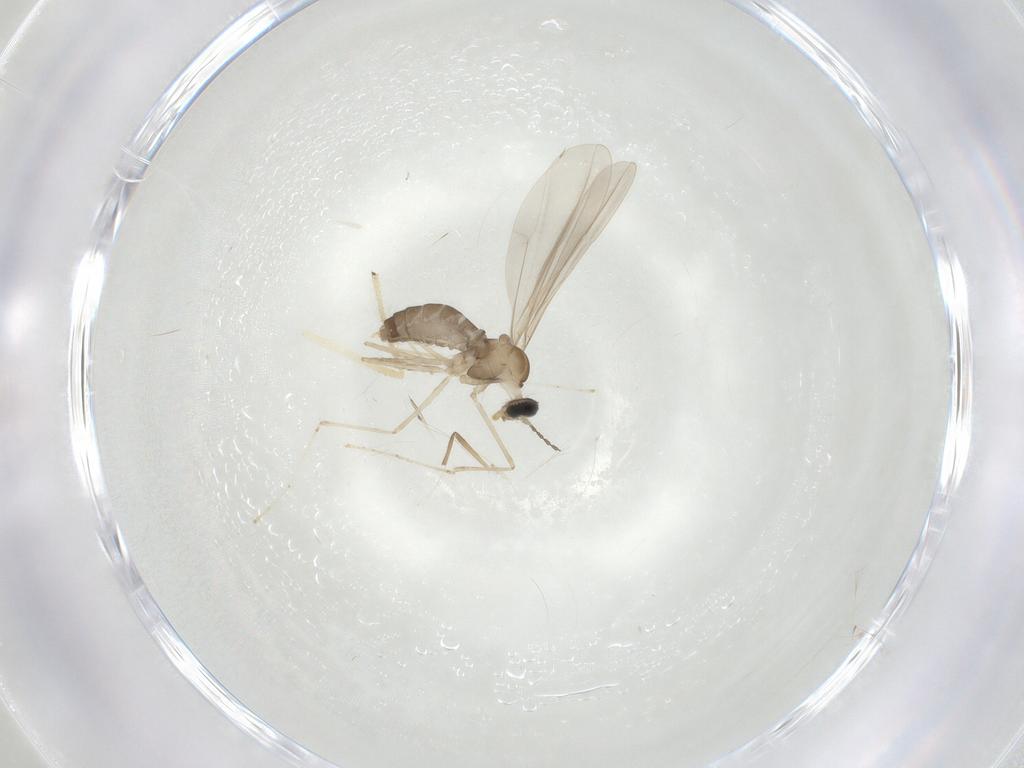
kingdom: Animalia
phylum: Arthropoda
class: Insecta
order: Diptera
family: Cecidomyiidae
